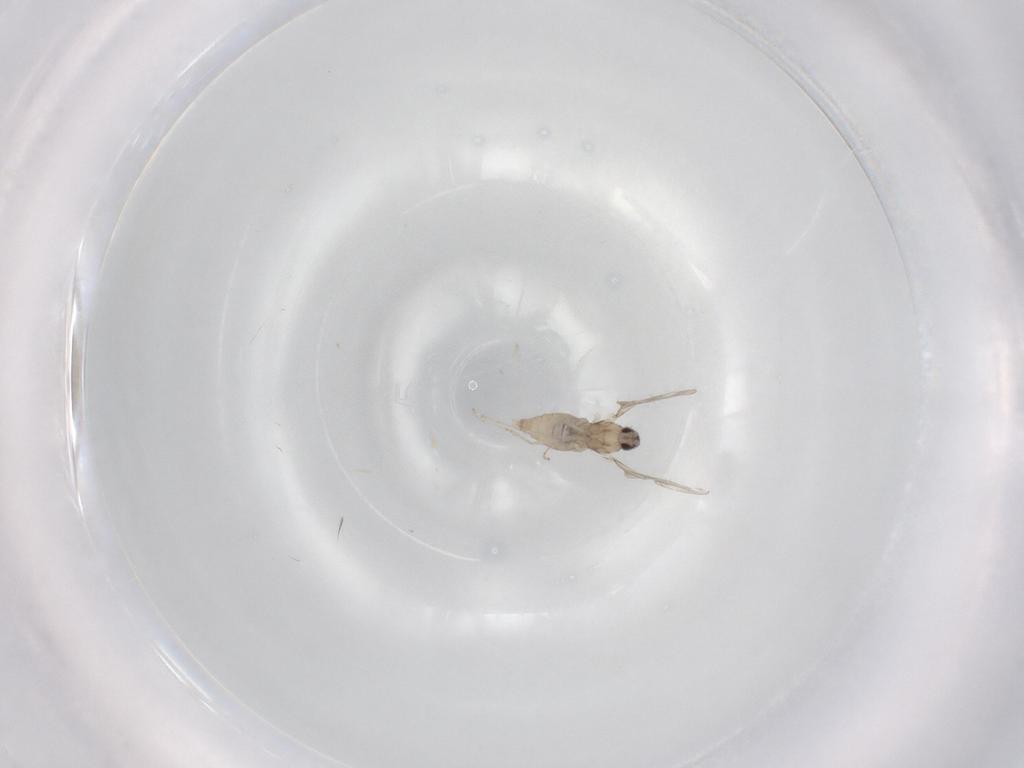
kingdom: Animalia
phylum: Arthropoda
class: Insecta
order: Diptera
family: Cecidomyiidae
